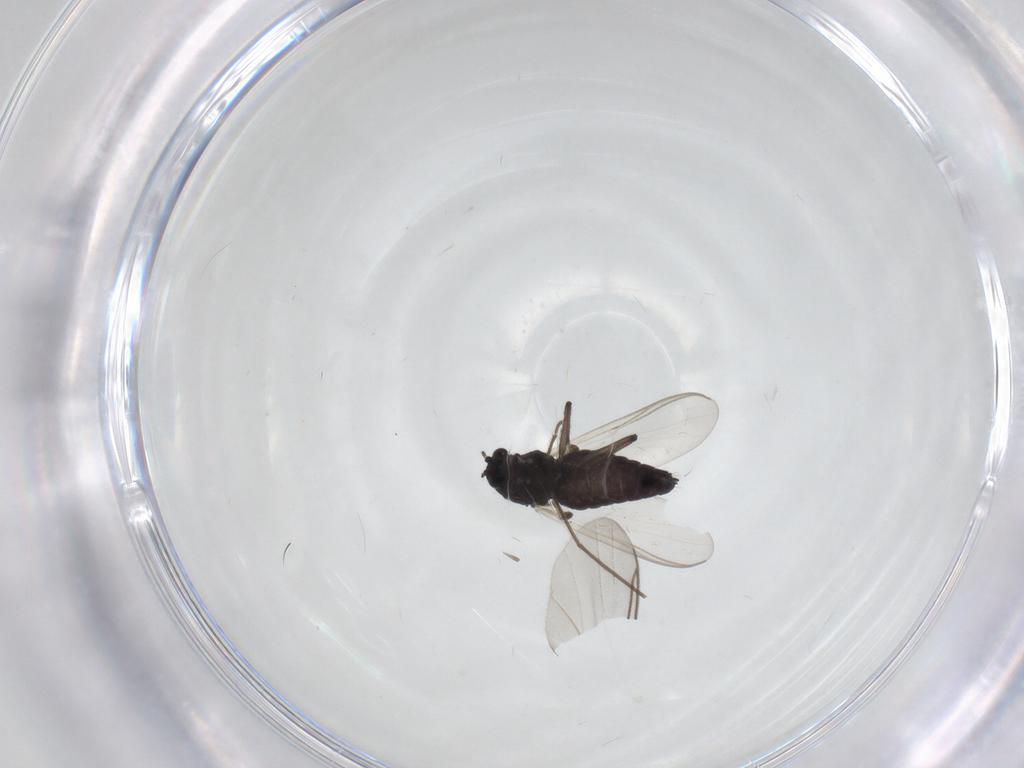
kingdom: Animalia
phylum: Arthropoda
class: Insecta
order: Diptera
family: Chironomidae
